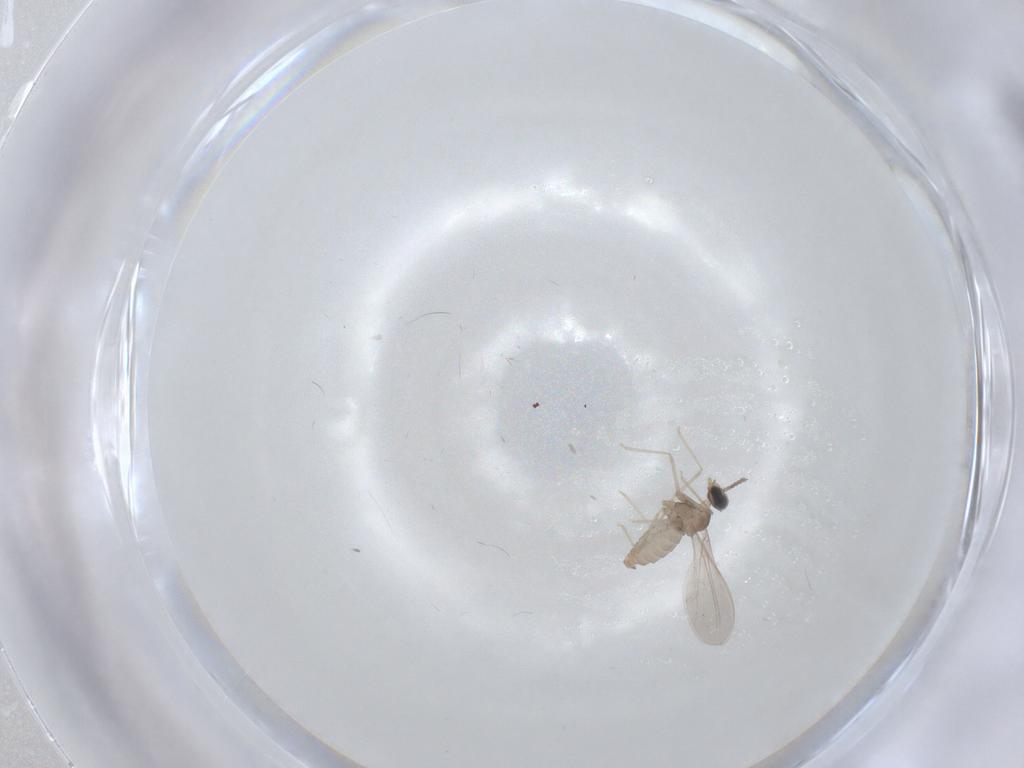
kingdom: Animalia
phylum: Arthropoda
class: Insecta
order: Diptera
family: Cecidomyiidae
